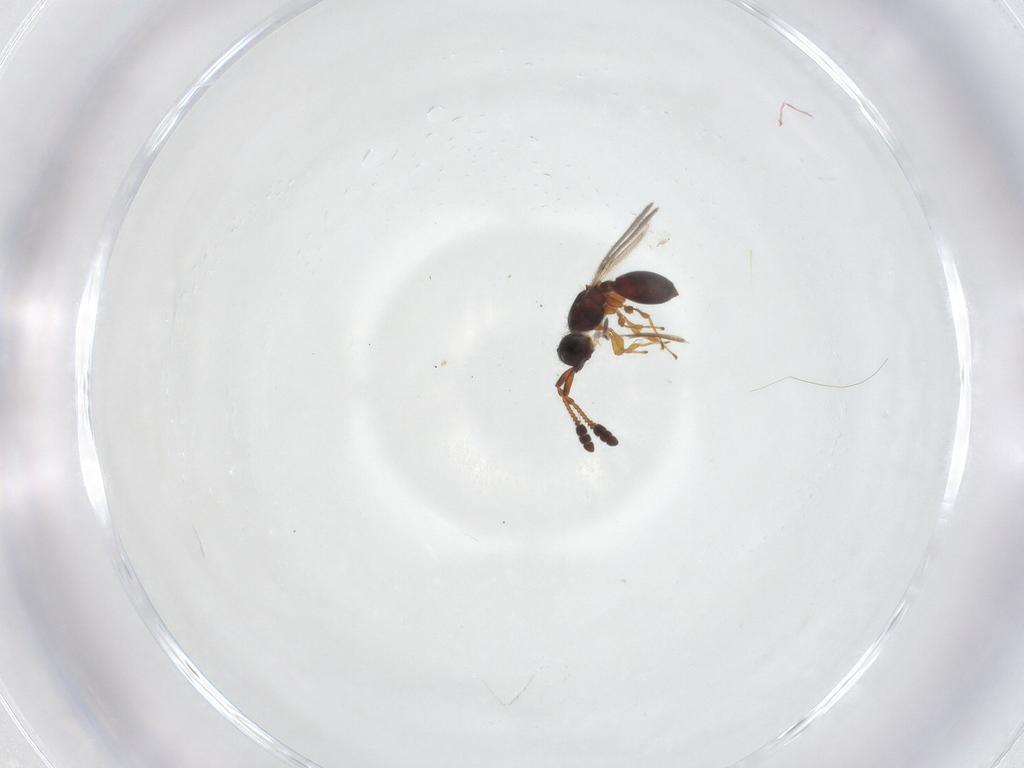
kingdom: Animalia
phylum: Arthropoda
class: Insecta
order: Hymenoptera
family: Diapriidae
